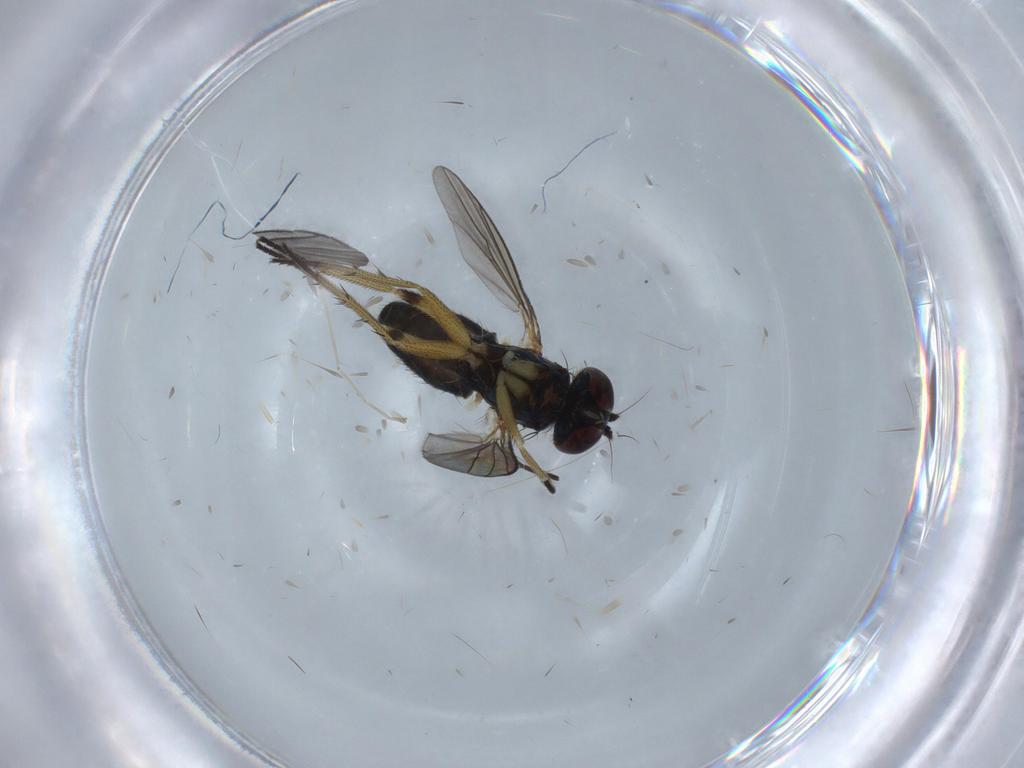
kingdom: Animalia
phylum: Arthropoda
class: Insecta
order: Diptera
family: Sciaridae
